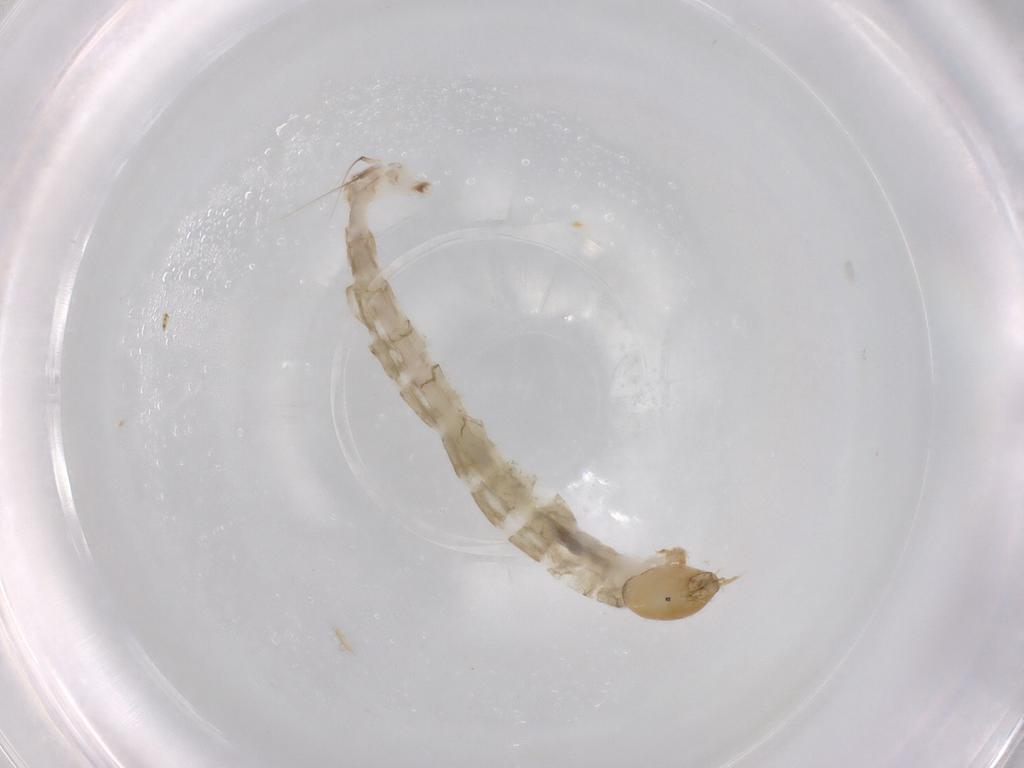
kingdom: Animalia
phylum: Arthropoda
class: Insecta
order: Diptera
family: Chironomidae
